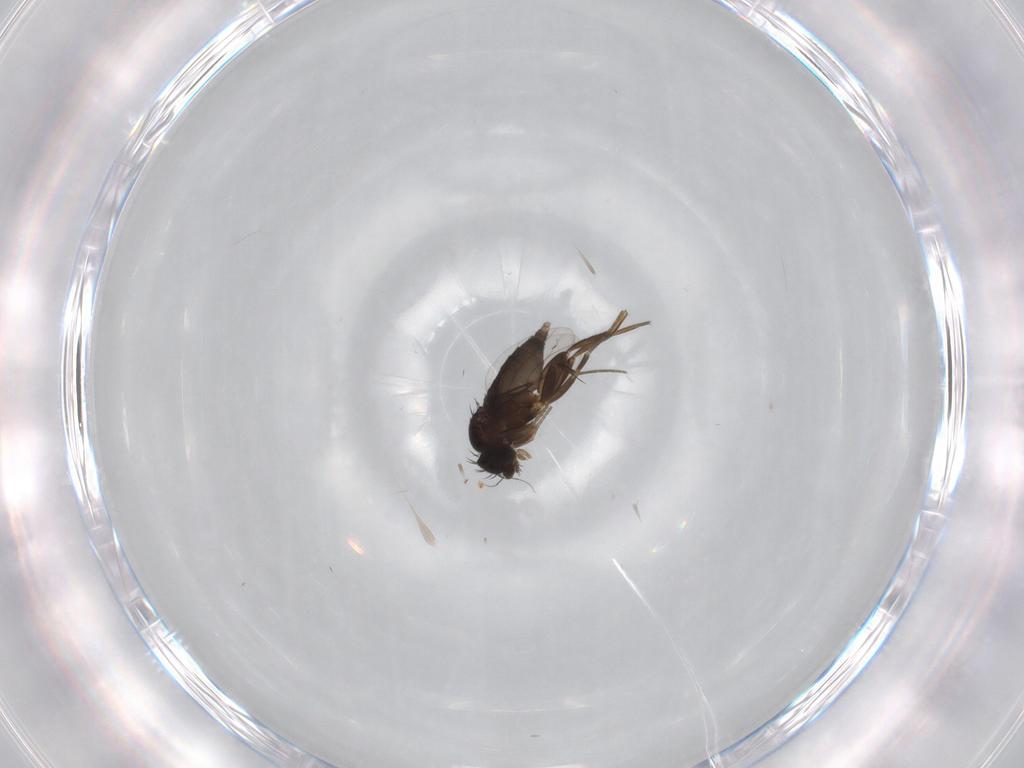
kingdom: Animalia
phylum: Arthropoda
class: Insecta
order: Diptera
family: Phoridae
